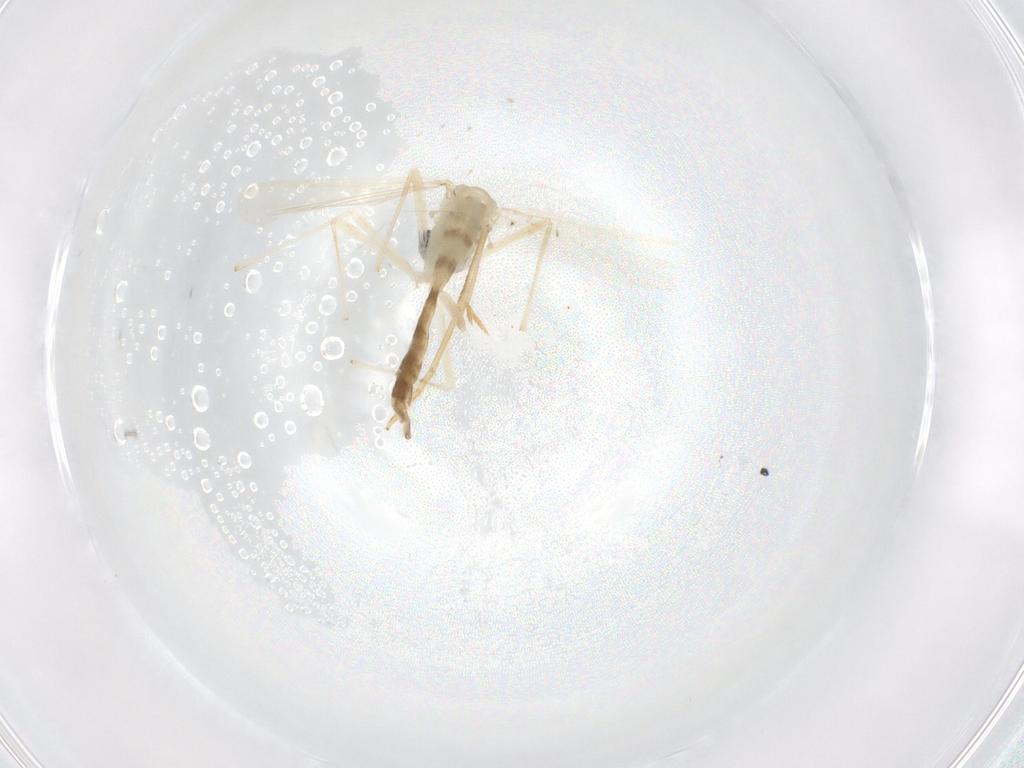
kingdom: Animalia
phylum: Arthropoda
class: Insecta
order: Diptera
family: Chironomidae
